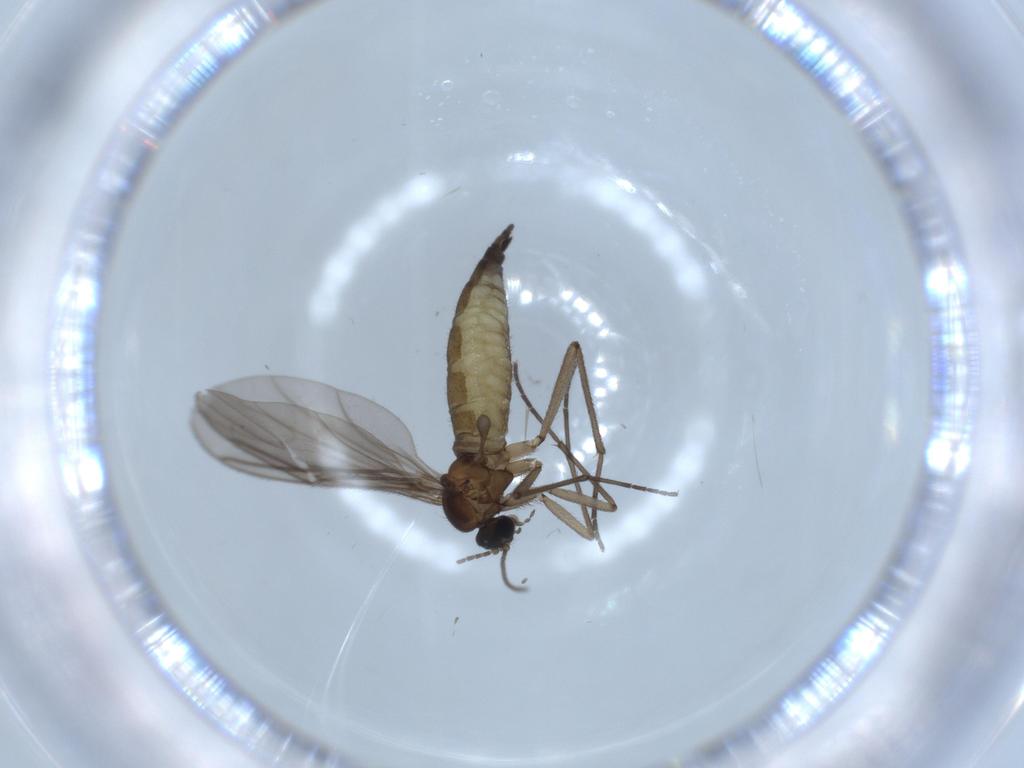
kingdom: Animalia
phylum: Arthropoda
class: Insecta
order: Diptera
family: Sciaridae
